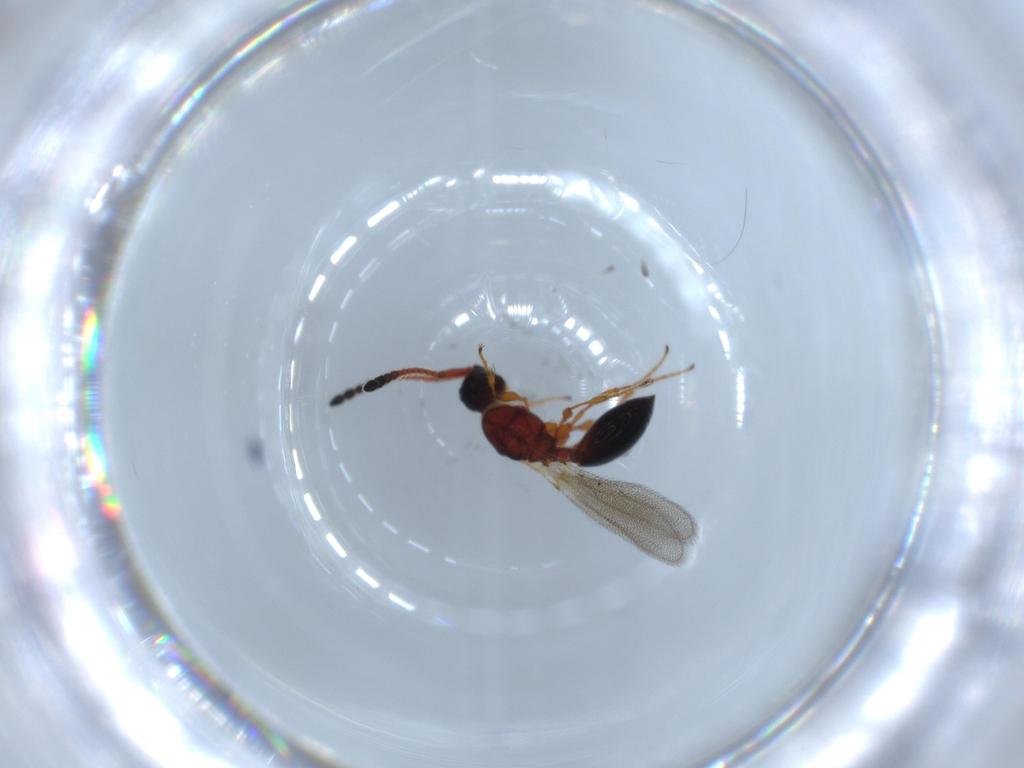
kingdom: Animalia
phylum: Arthropoda
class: Insecta
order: Hymenoptera
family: Diapriidae
